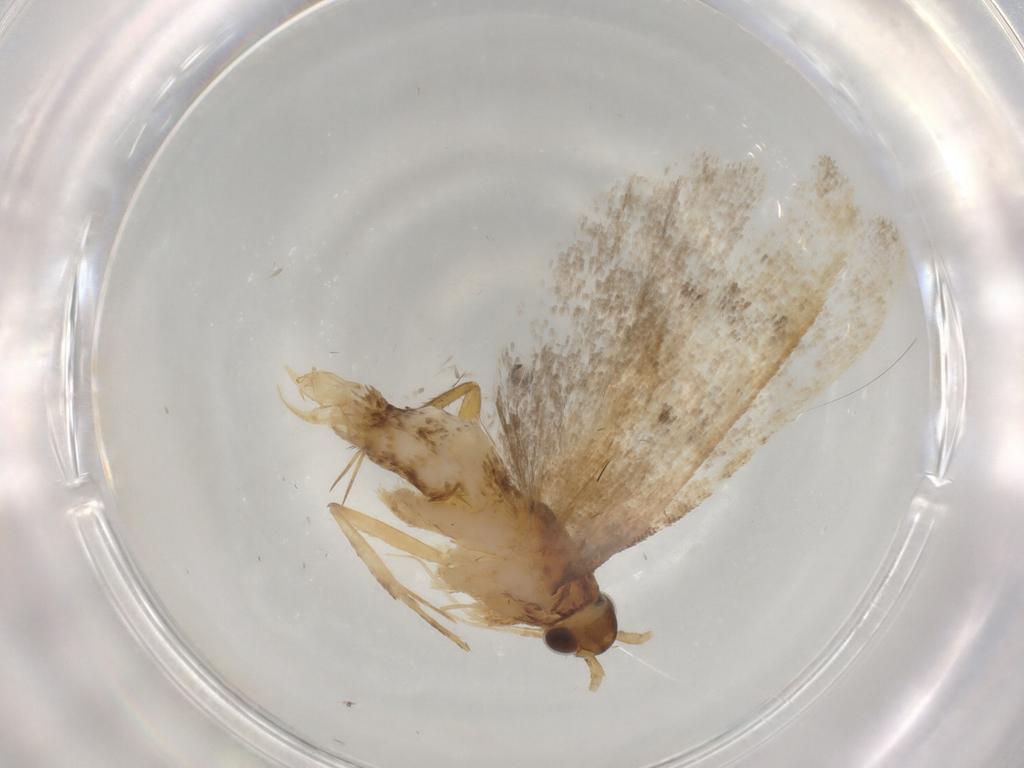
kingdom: Animalia
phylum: Arthropoda
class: Insecta
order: Lepidoptera
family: Lecithoceridae
